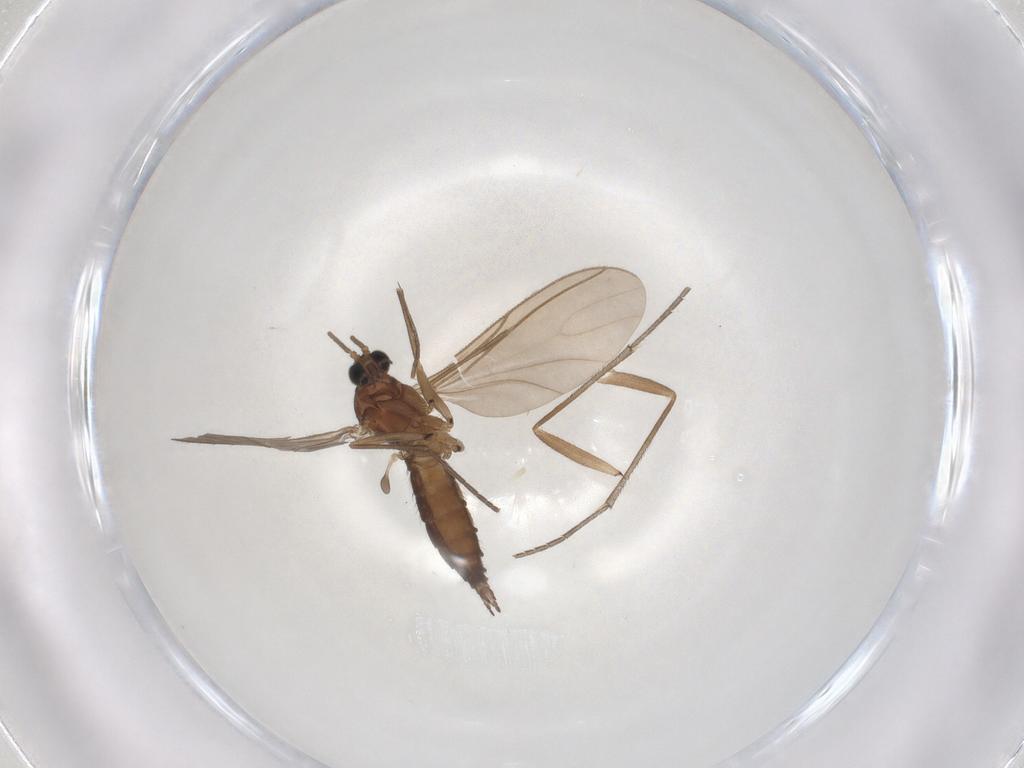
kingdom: Animalia
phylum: Arthropoda
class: Insecta
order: Diptera
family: Sciaridae
